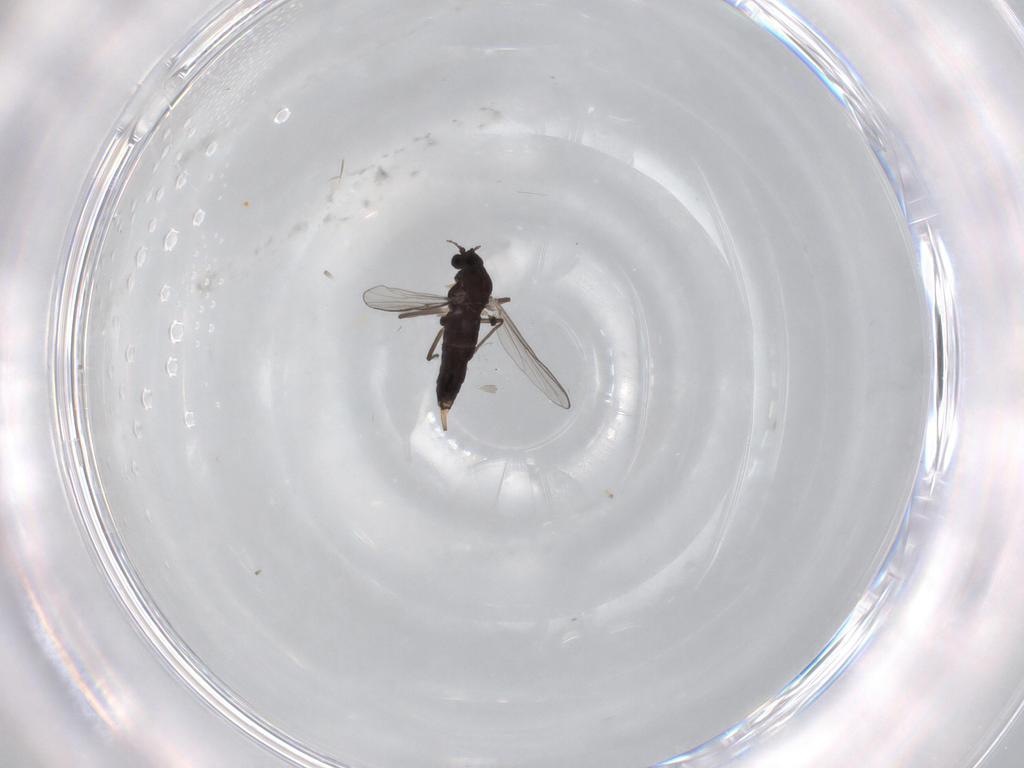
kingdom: Animalia
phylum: Arthropoda
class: Insecta
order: Diptera
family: Chironomidae
